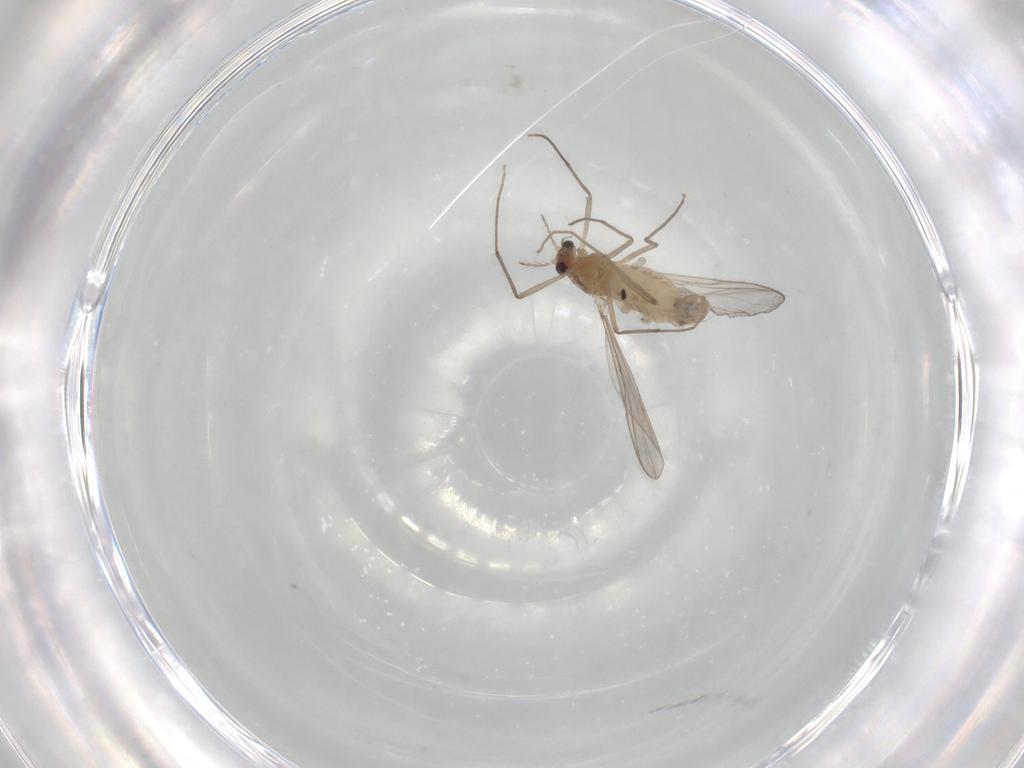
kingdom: Animalia
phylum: Arthropoda
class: Insecta
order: Diptera
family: Chironomidae
